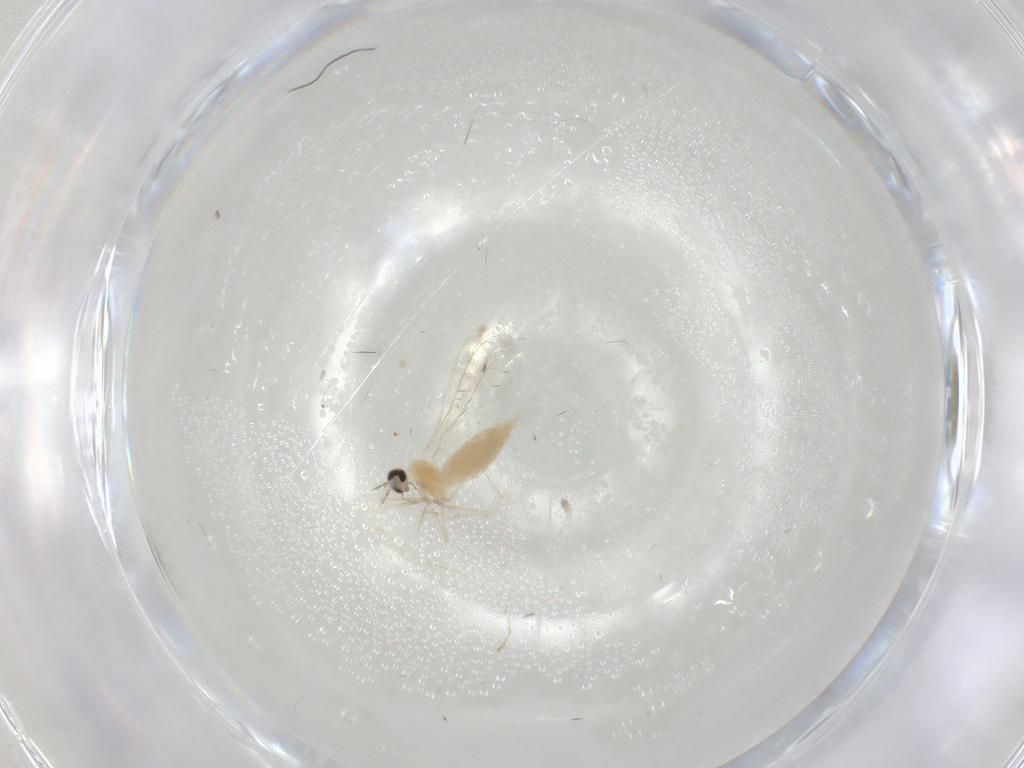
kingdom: Animalia
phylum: Arthropoda
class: Insecta
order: Diptera
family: Cecidomyiidae
